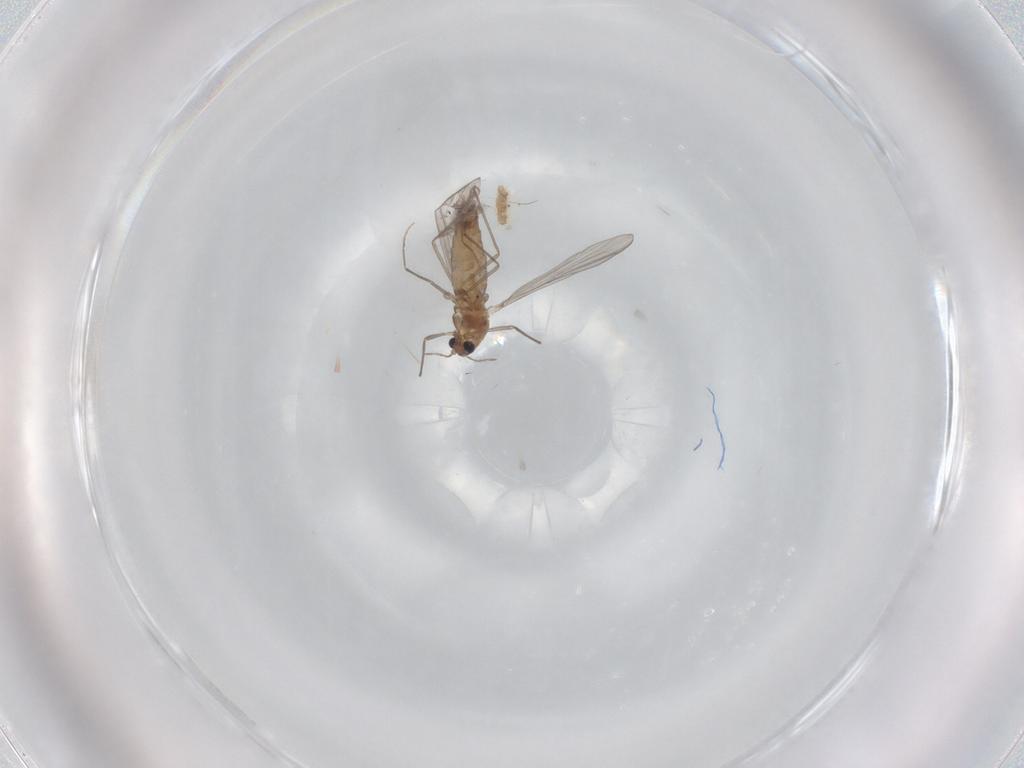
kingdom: Animalia
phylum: Arthropoda
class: Insecta
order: Diptera
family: Chironomidae
